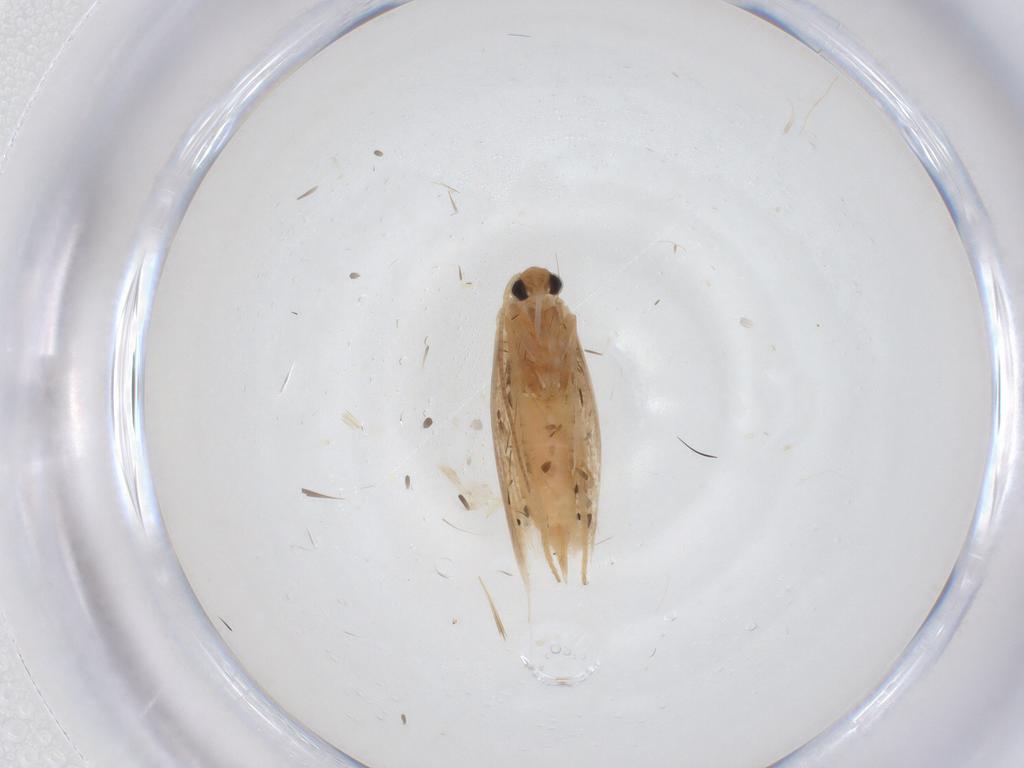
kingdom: Animalia
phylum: Arthropoda
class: Insecta
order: Lepidoptera
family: Bucculatricidae
